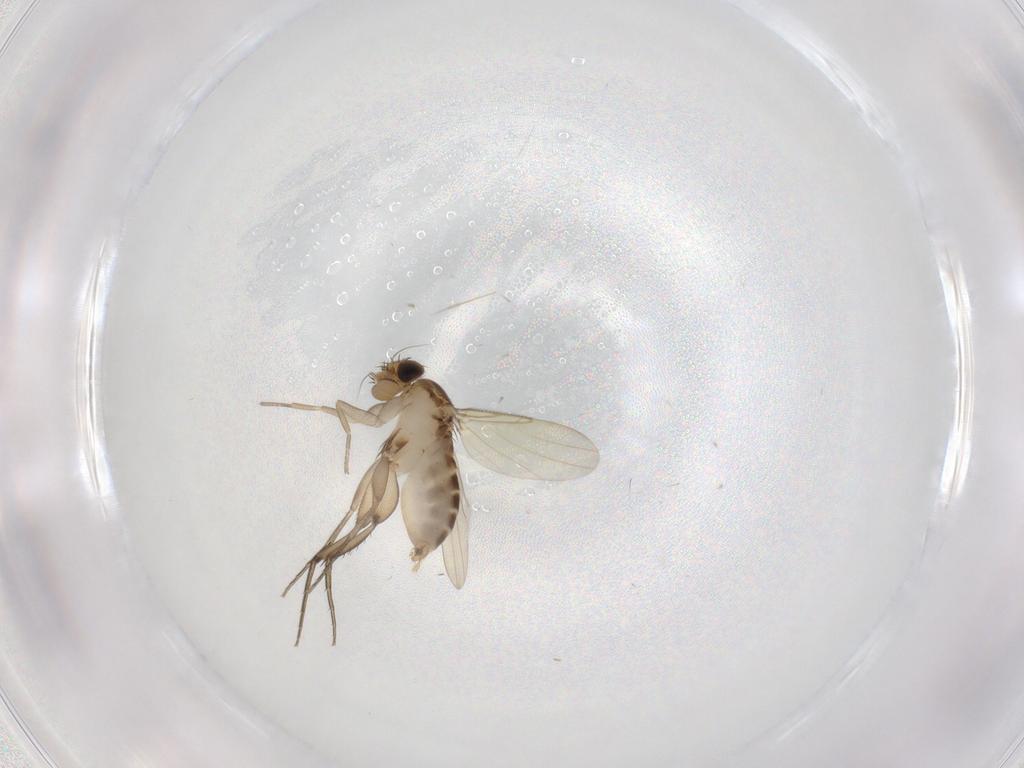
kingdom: Animalia
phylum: Arthropoda
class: Insecta
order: Diptera
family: Phoridae
